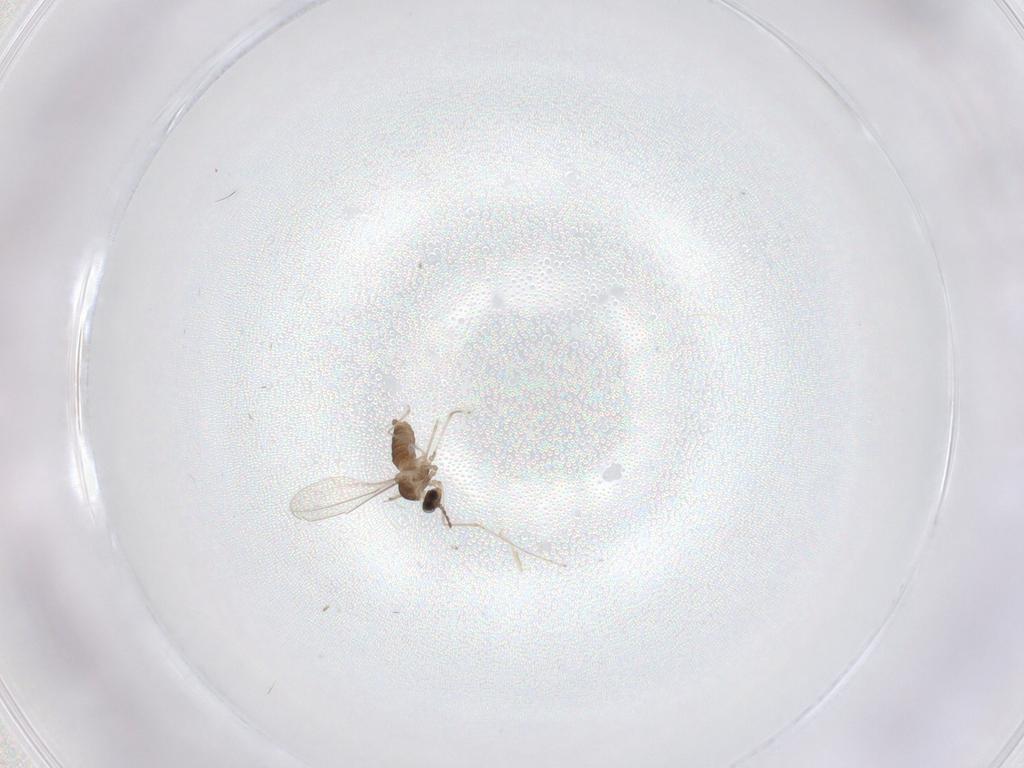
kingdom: Animalia
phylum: Arthropoda
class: Insecta
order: Diptera
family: Cecidomyiidae
